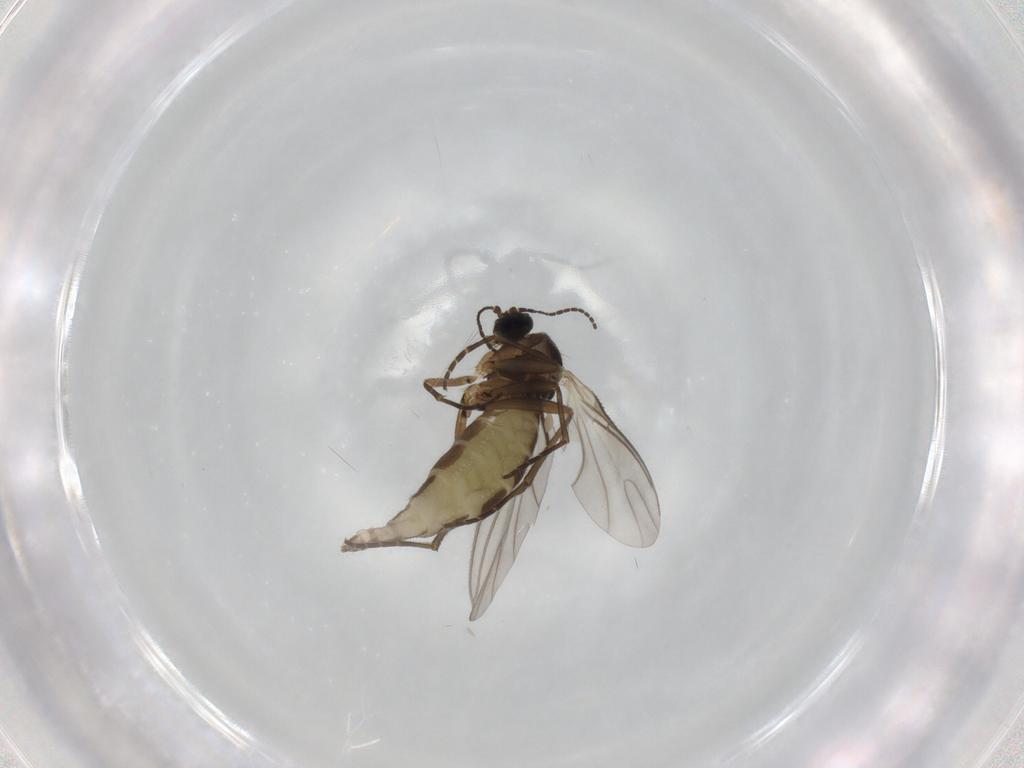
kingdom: Animalia
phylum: Arthropoda
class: Insecta
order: Diptera
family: Chironomidae
